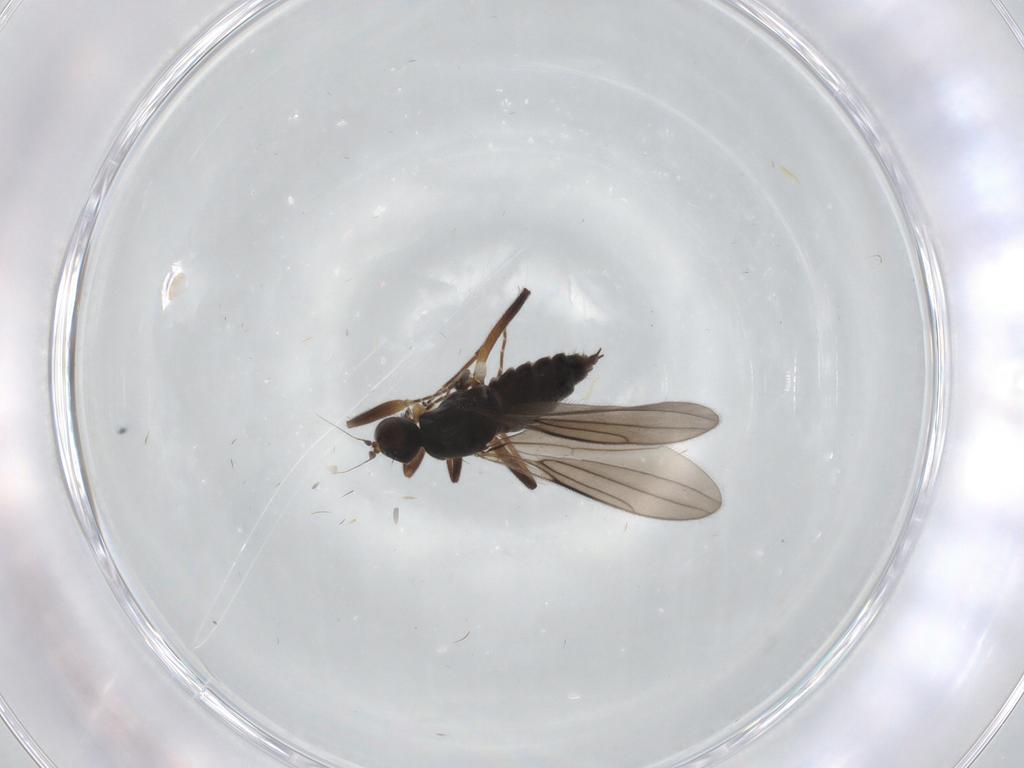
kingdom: Animalia
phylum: Arthropoda
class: Insecta
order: Diptera
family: Hybotidae
